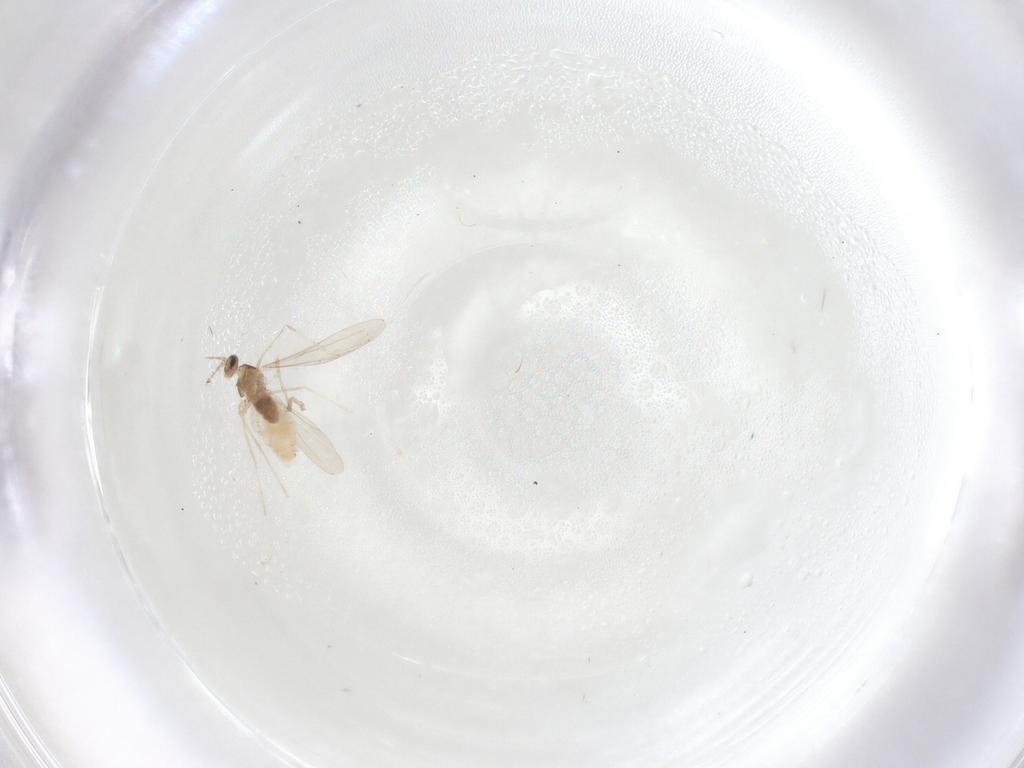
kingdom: Animalia
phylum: Arthropoda
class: Insecta
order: Diptera
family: Cecidomyiidae
